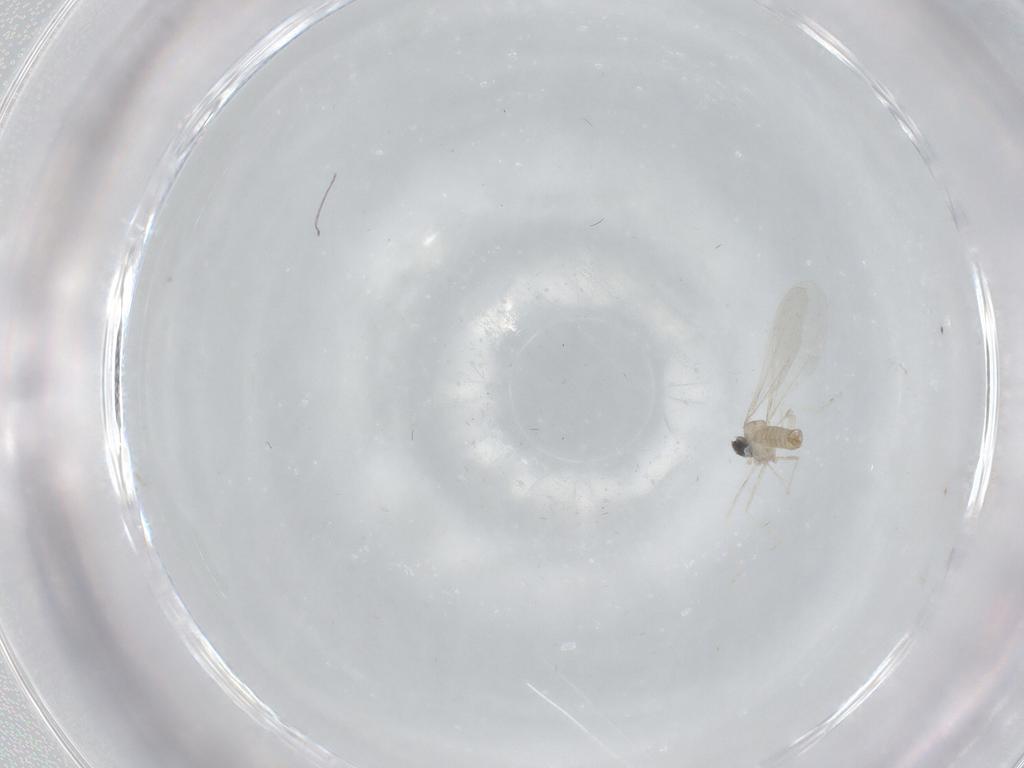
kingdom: Animalia
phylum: Arthropoda
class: Insecta
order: Diptera
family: Cecidomyiidae
